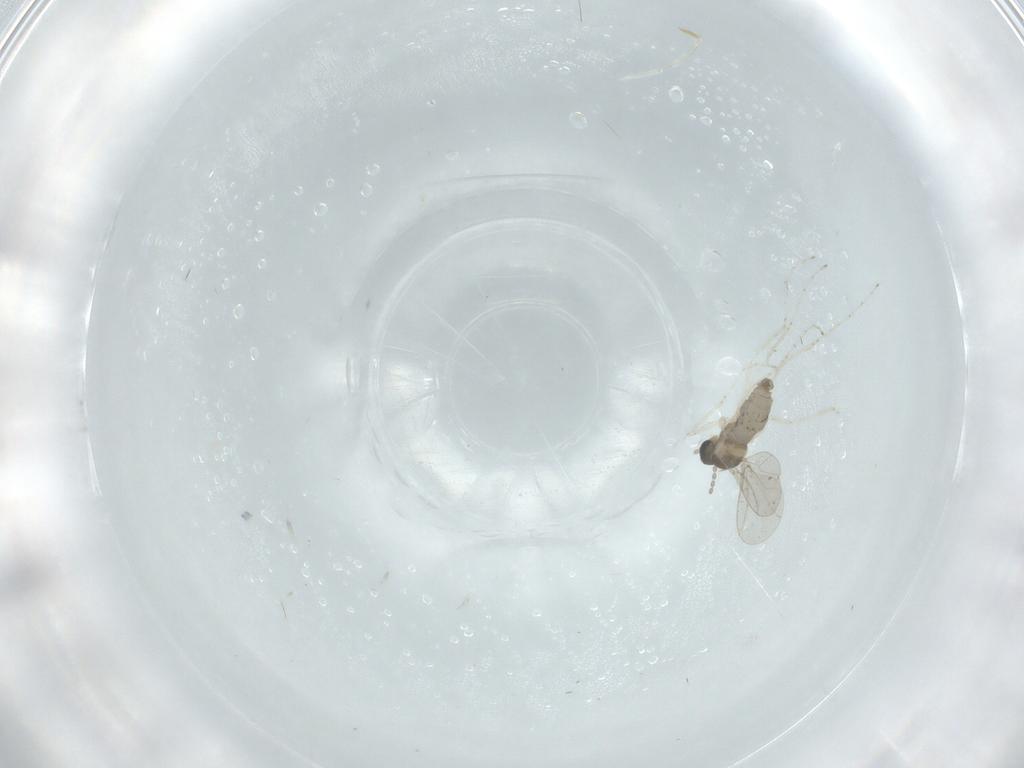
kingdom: Animalia
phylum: Arthropoda
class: Insecta
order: Diptera
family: Cecidomyiidae
